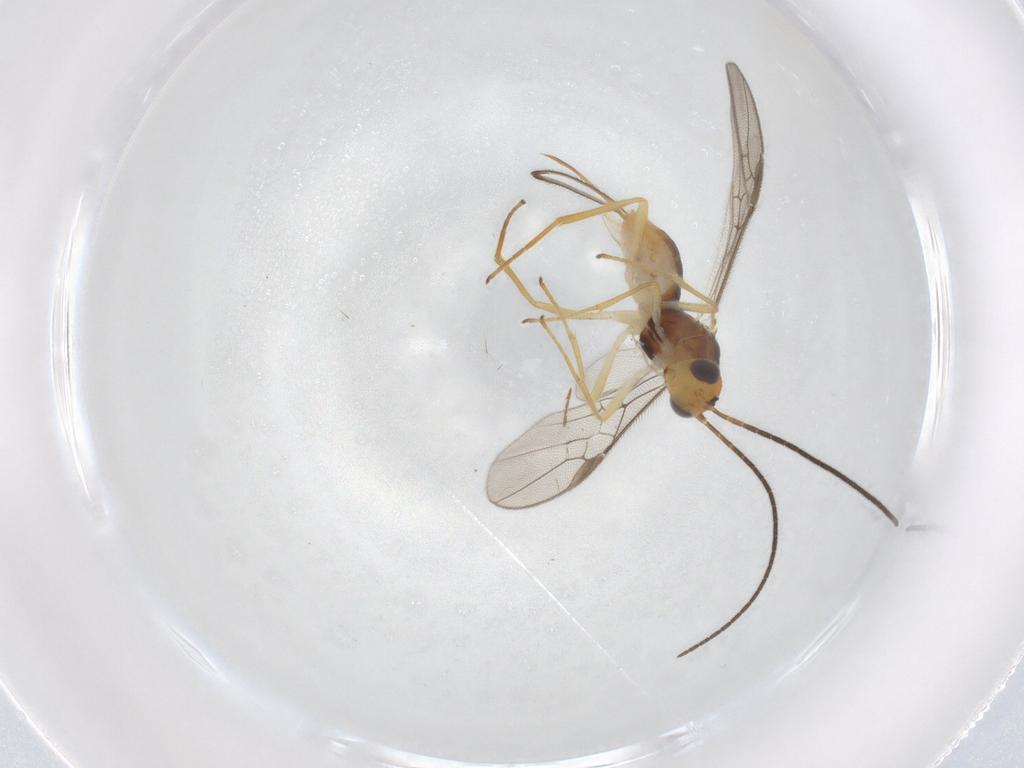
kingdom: Animalia
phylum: Arthropoda
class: Insecta
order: Hymenoptera
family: Braconidae
